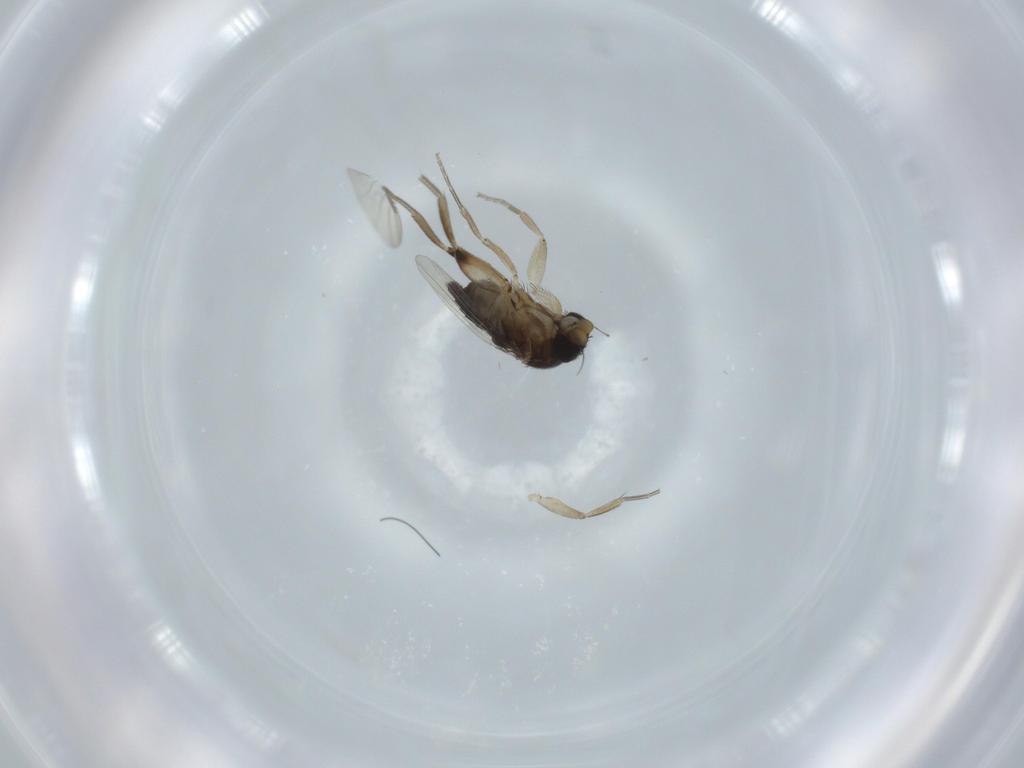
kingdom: Animalia
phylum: Arthropoda
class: Insecta
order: Diptera
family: Phoridae
